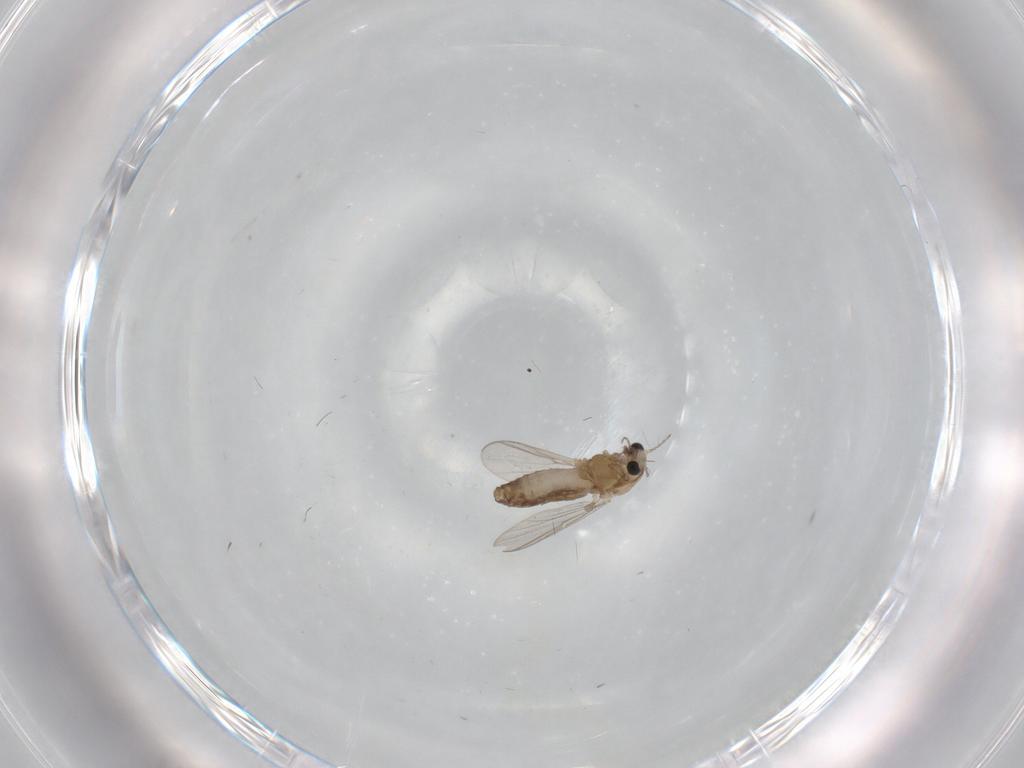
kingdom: Animalia
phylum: Arthropoda
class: Insecta
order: Diptera
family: Chironomidae
